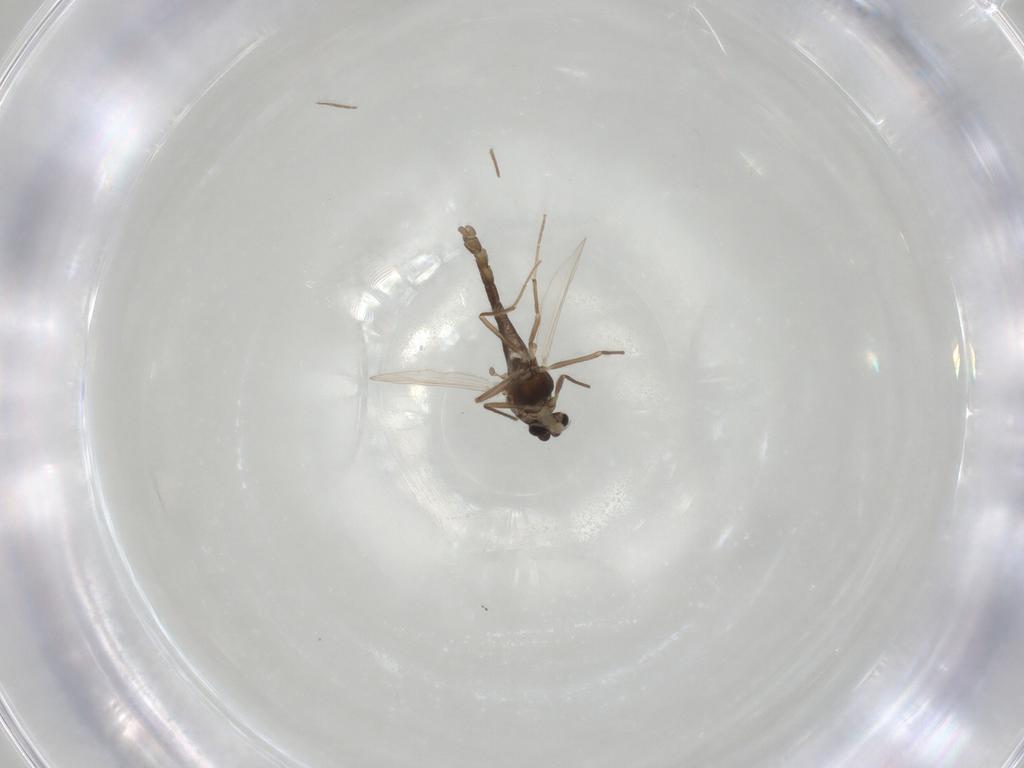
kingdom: Animalia
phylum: Arthropoda
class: Insecta
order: Diptera
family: Chironomidae
